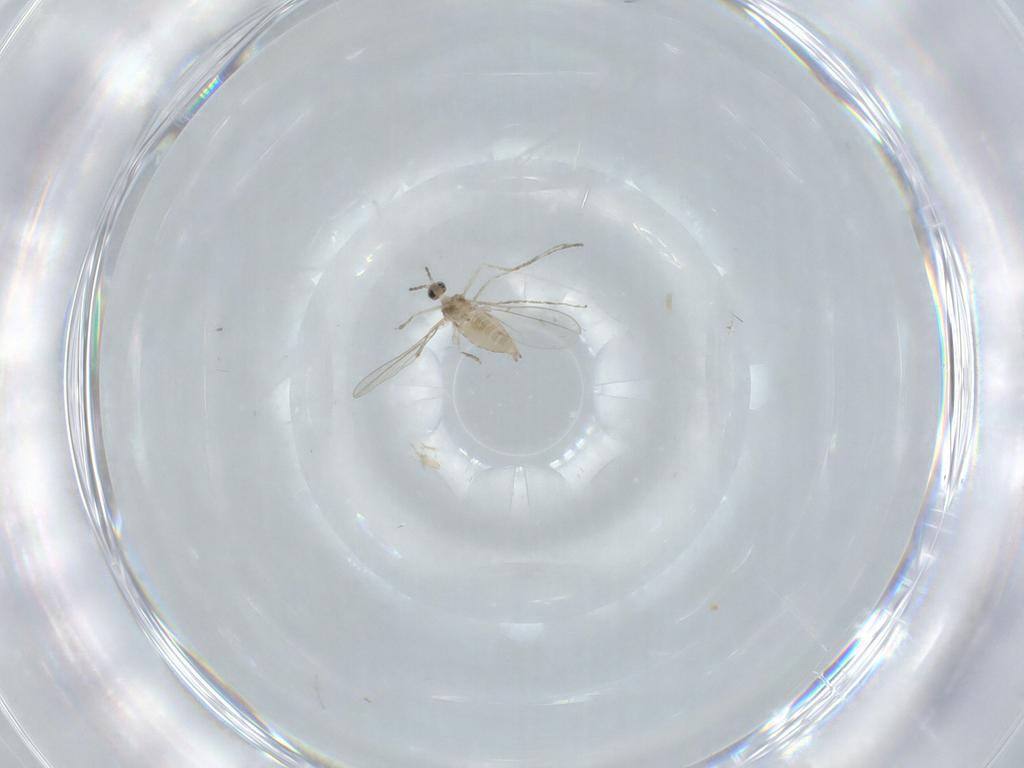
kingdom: Animalia
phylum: Arthropoda
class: Insecta
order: Diptera
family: Cecidomyiidae
